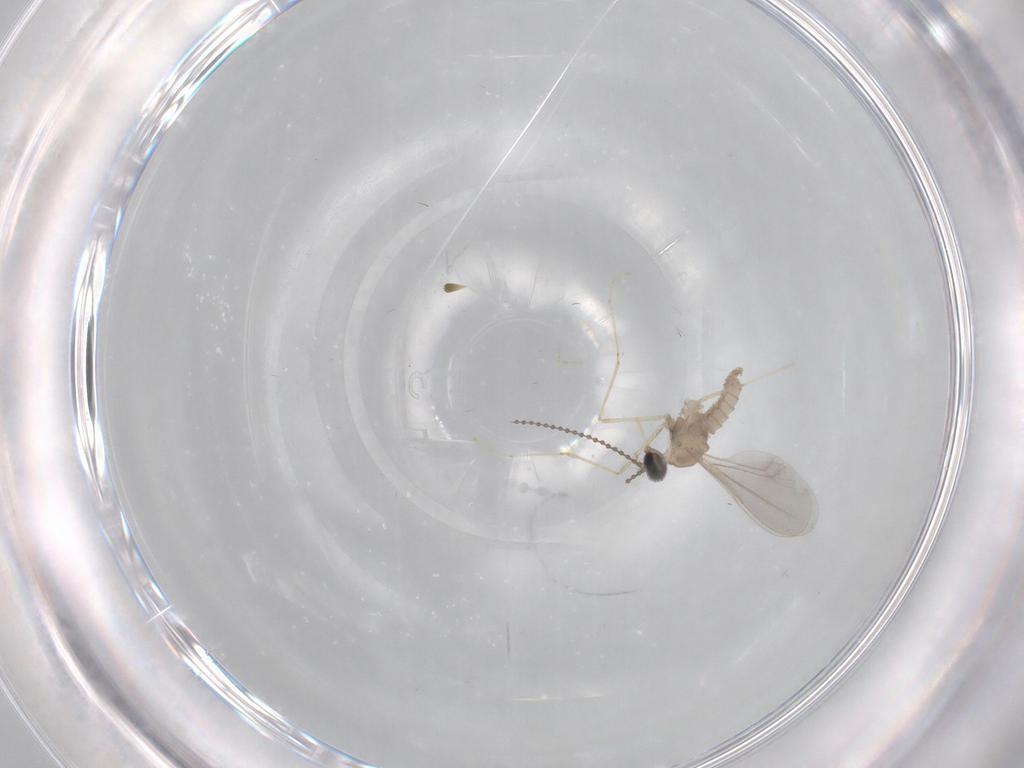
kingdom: Animalia
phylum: Arthropoda
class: Insecta
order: Diptera
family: Cecidomyiidae
